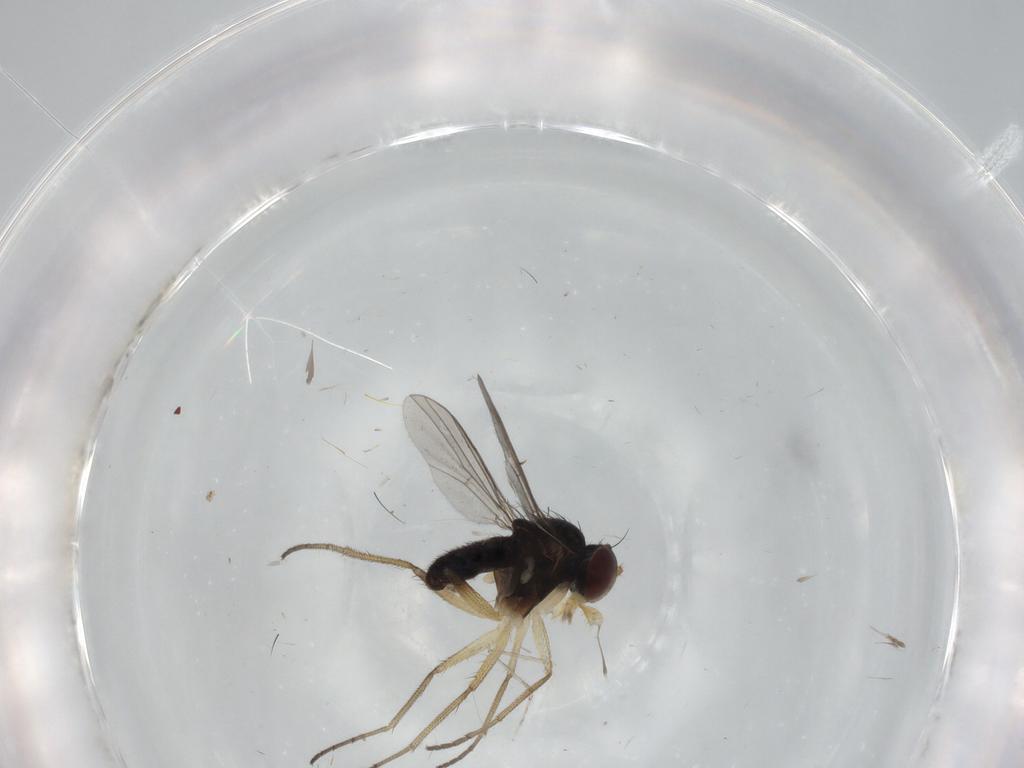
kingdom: Animalia
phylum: Arthropoda
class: Insecta
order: Diptera
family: Dolichopodidae
